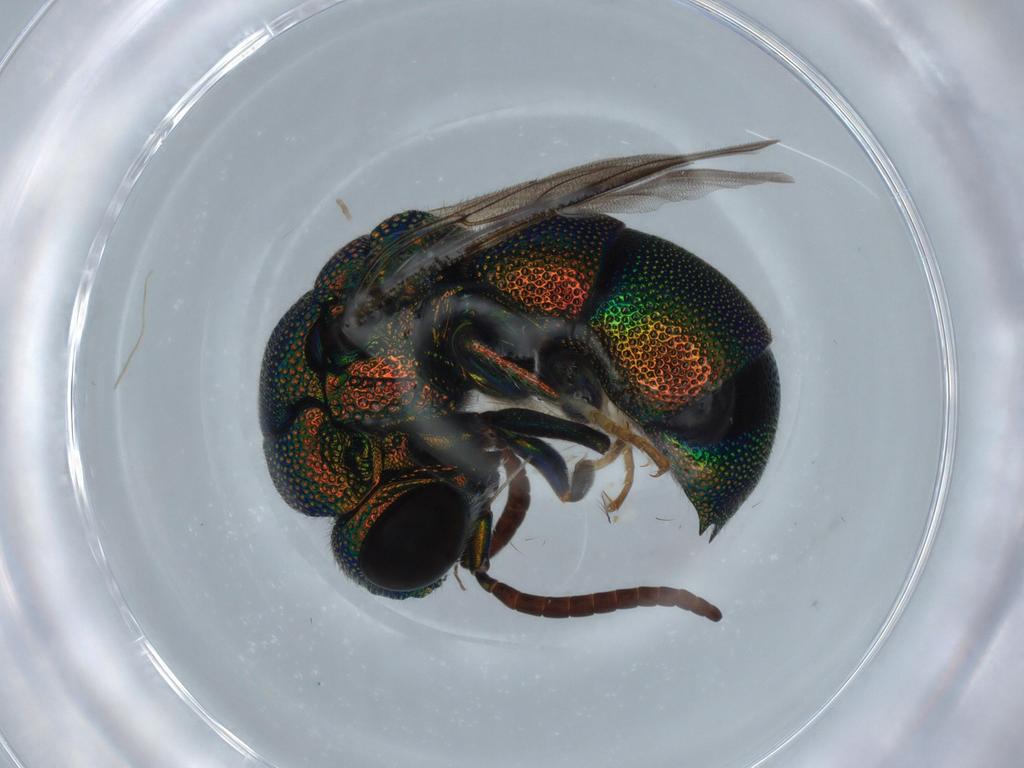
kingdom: Animalia
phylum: Arthropoda
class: Insecta
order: Hymenoptera
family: Figitidae
